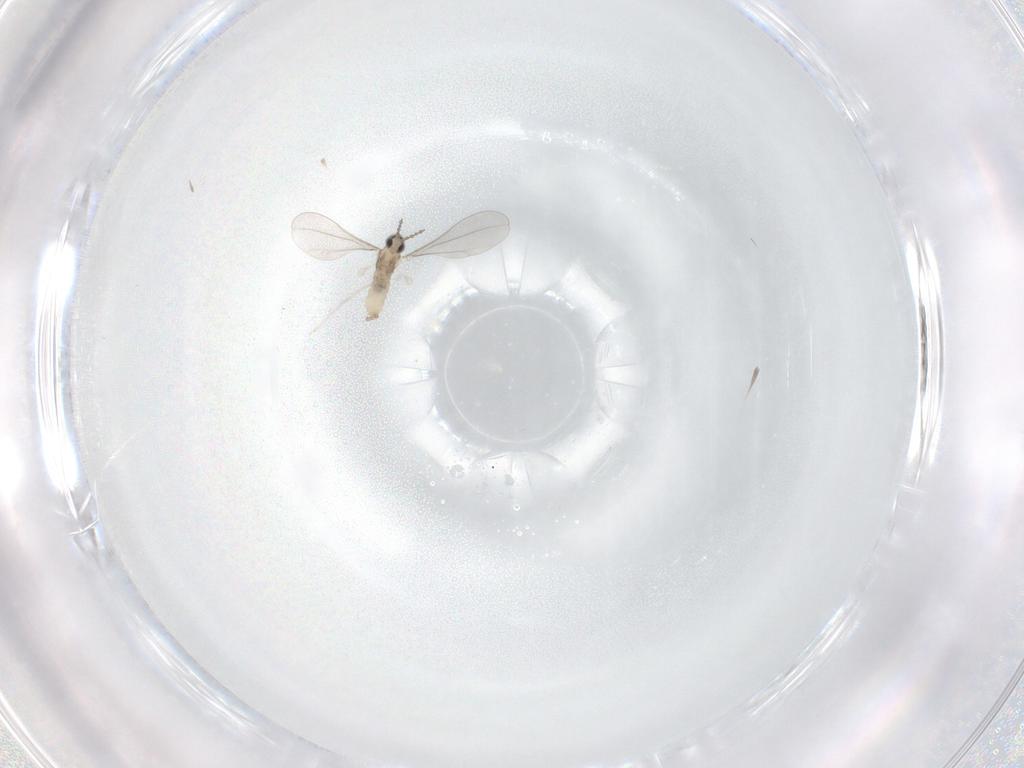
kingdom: Animalia
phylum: Arthropoda
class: Insecta
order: Diptera
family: Cecidomyiidae
